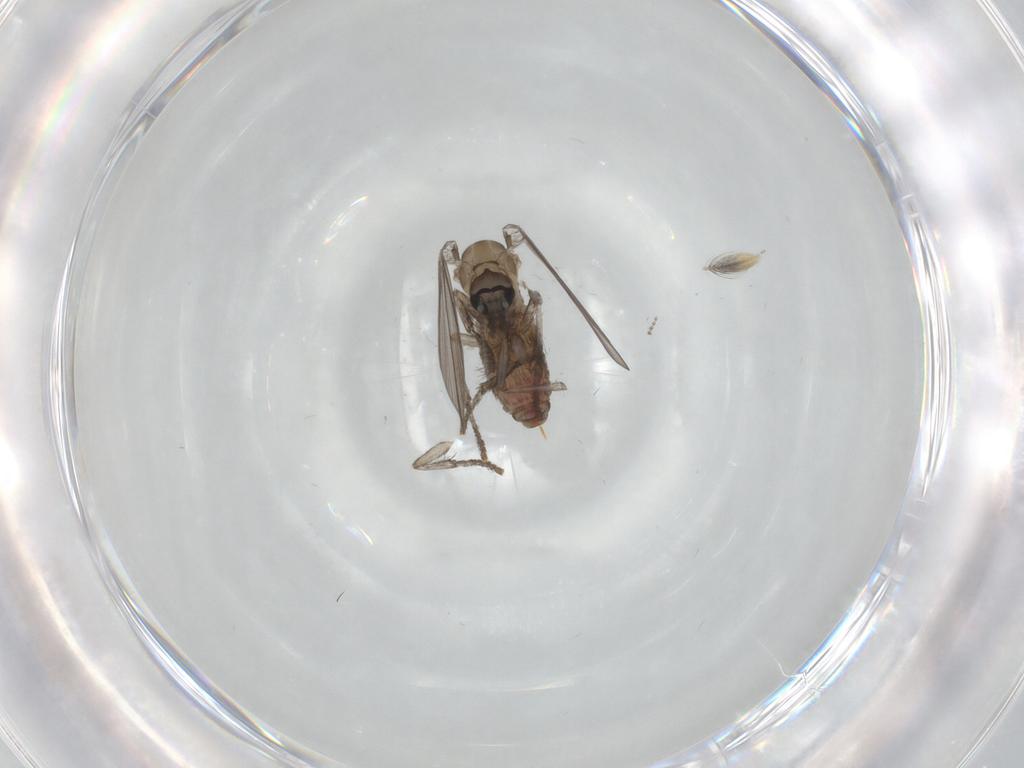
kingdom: Animalia
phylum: Arthropoda
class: Insecta
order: Diptera
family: Psychodidae
